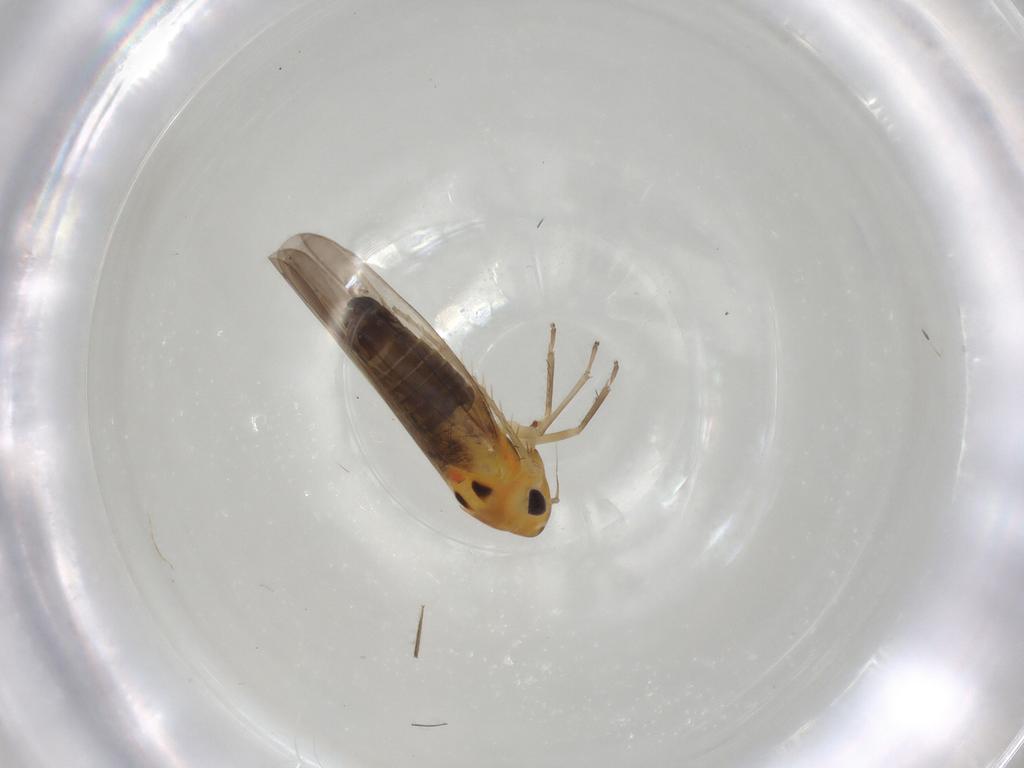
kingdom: Animalia
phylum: Arthropoda
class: Insecta
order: Hemiptera
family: Cicadellidae
